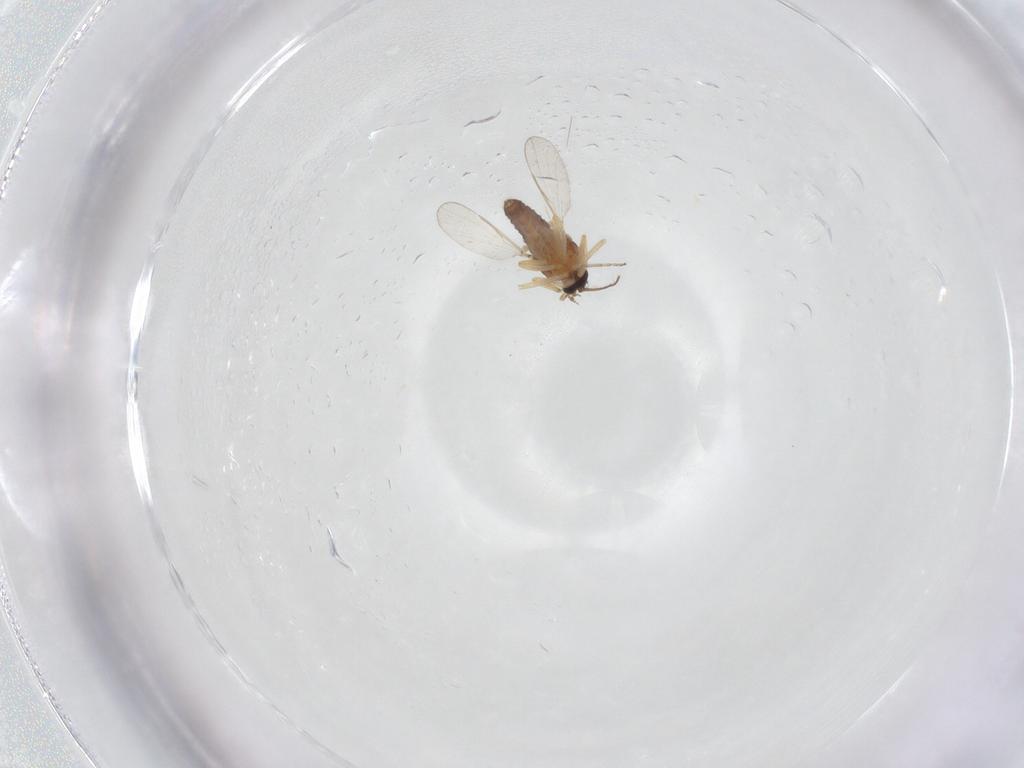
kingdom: Animalia
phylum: Arthropoda
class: Insecta
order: Diptera
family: Ceratopogonidae
